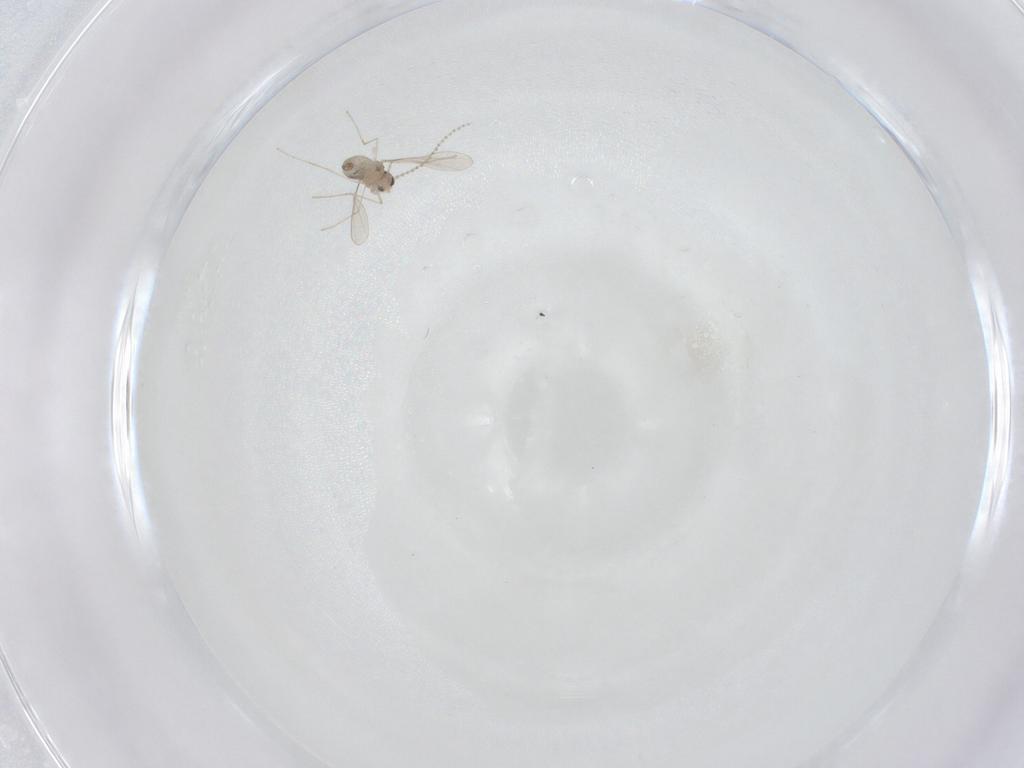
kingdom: Animalia
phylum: Arthropoda
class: Insecta
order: Diptera
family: Cecidomyiidae
